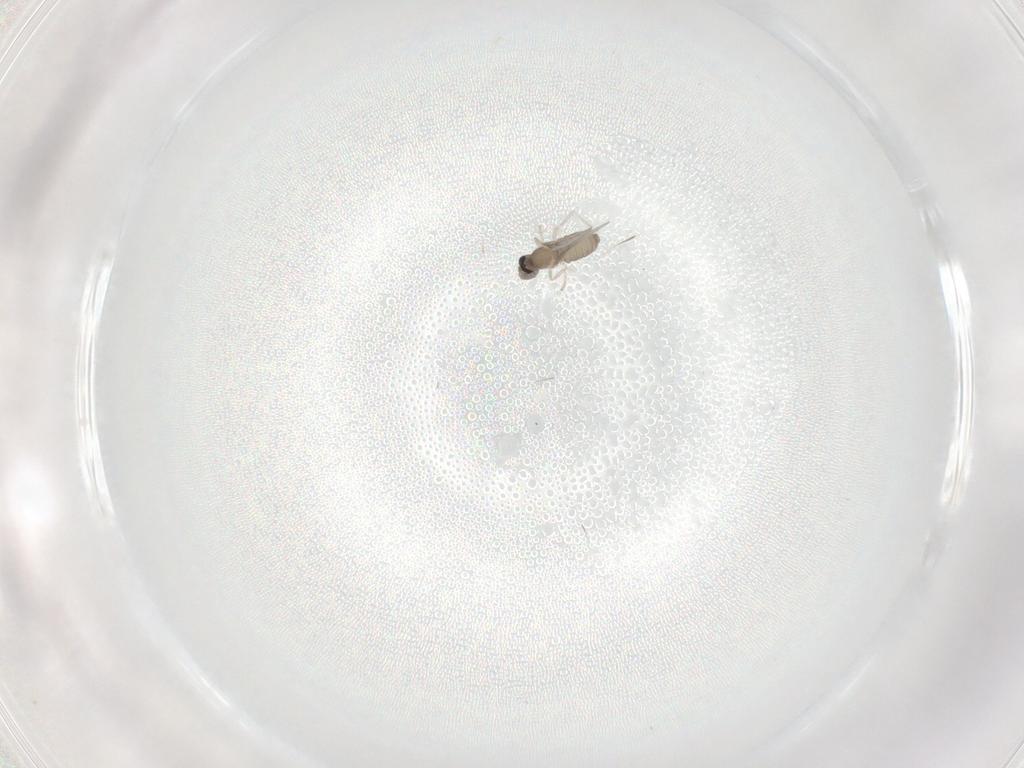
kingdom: Animalia
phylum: Arthropoda
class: Insecta
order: Diptera
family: Cecidomyiidae
